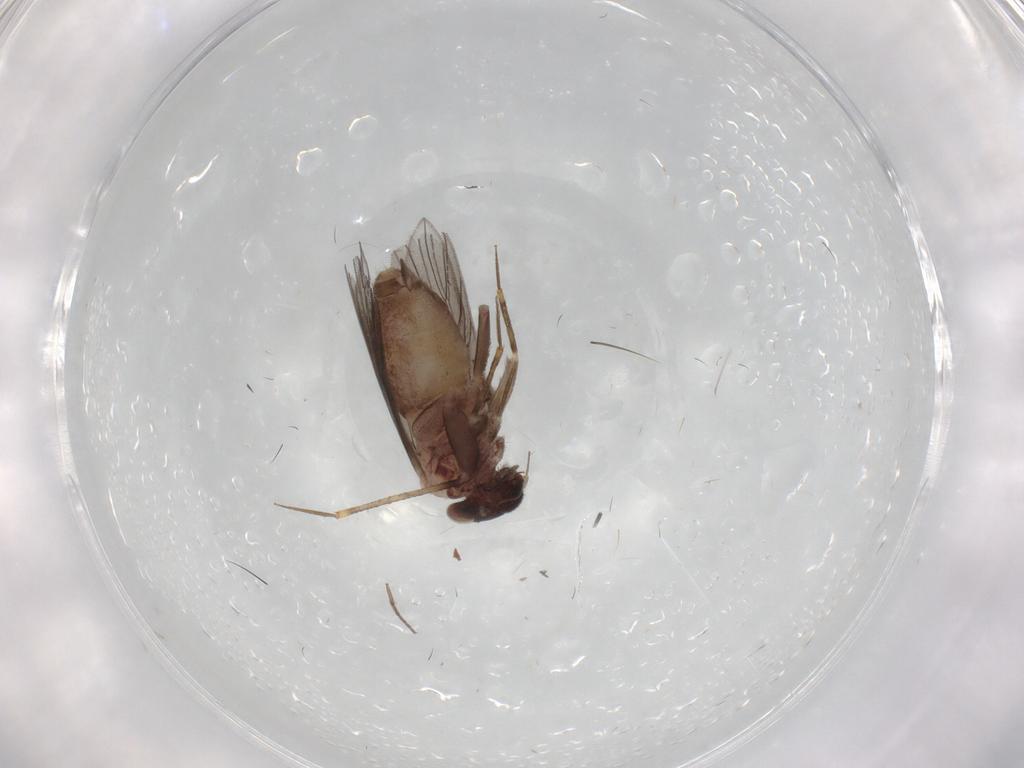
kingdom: Animalia
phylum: Arthropoda
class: Insecta
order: Psocodea
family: Lepidopsocidae
